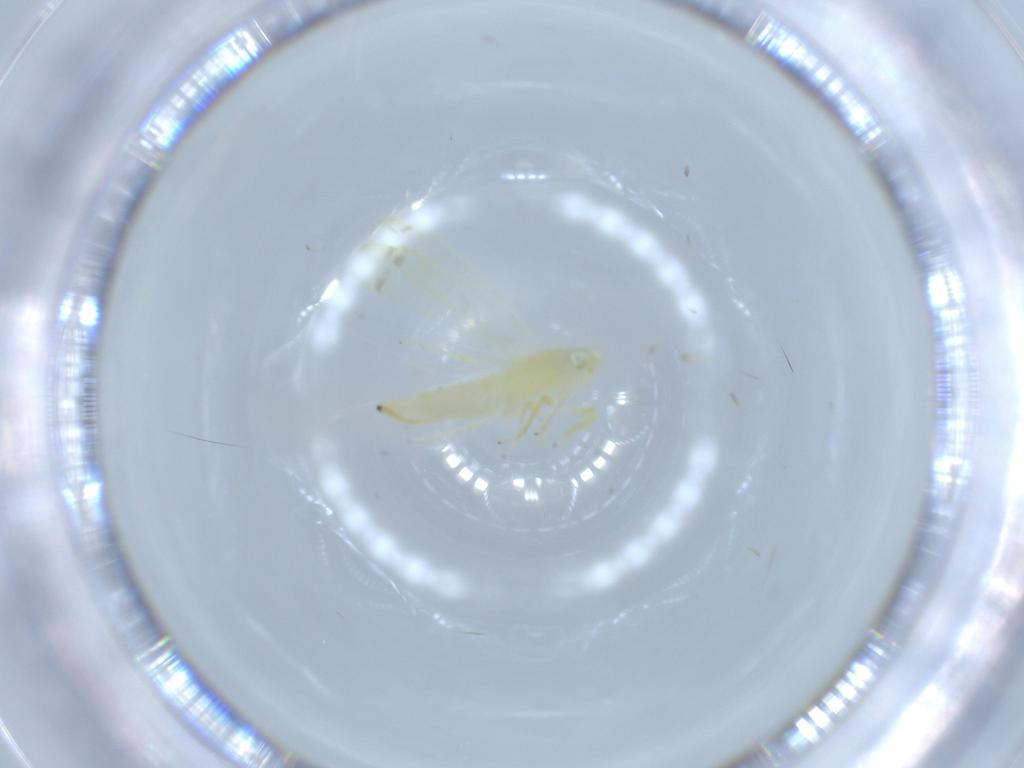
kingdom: Animalia
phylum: Arthropoda
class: Insecta
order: Hemiptera
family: Cicadellidae
